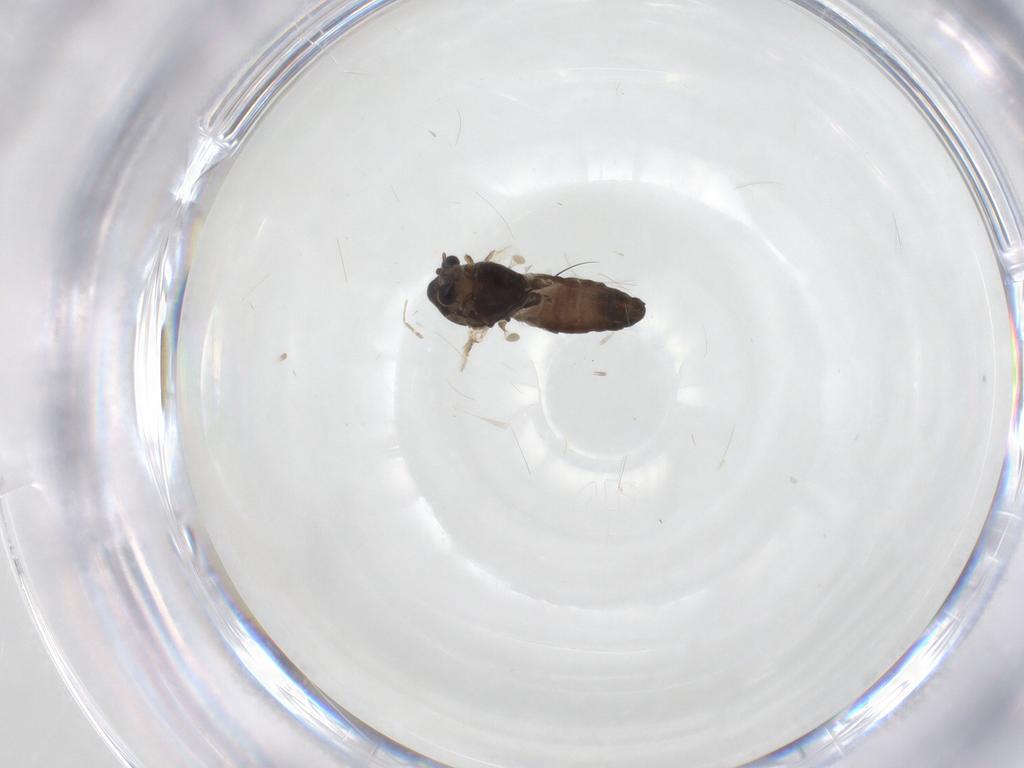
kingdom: Animalia
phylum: Arthropoda
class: Insecta
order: Diptera
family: Chironomidae
